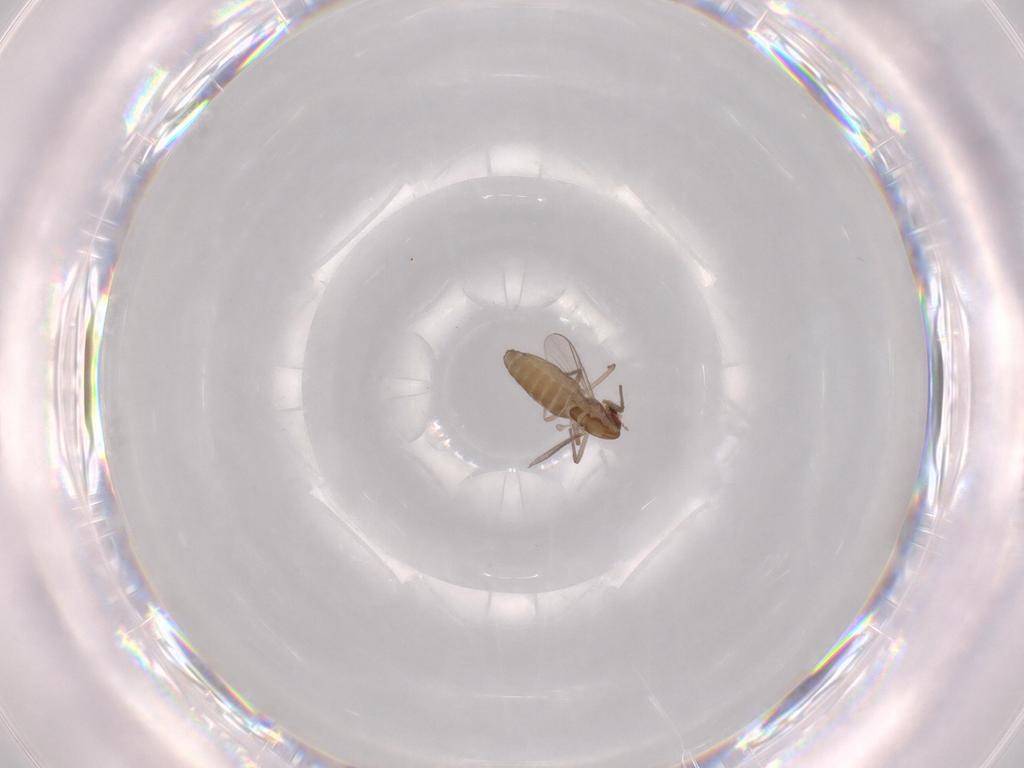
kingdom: Animalia
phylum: Arthropoda
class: Insecta
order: Diptera
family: Chironomidae
